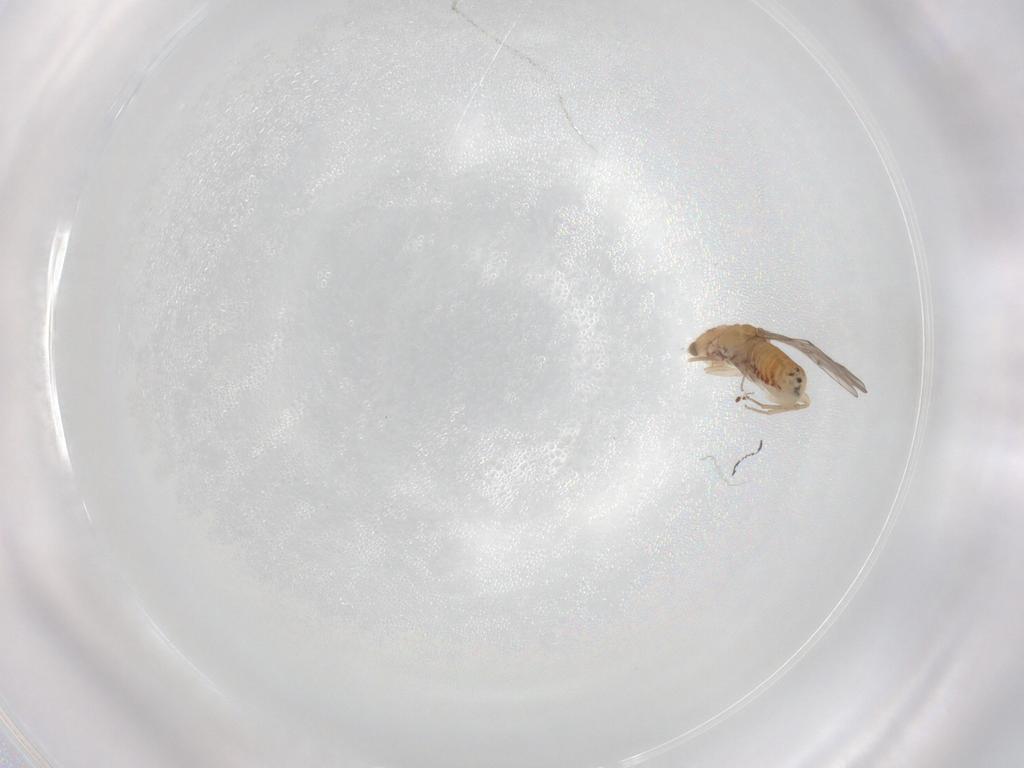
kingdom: Animalia
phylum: Arthropoda
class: Insecta
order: Psocodea
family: Ectopsocidae
